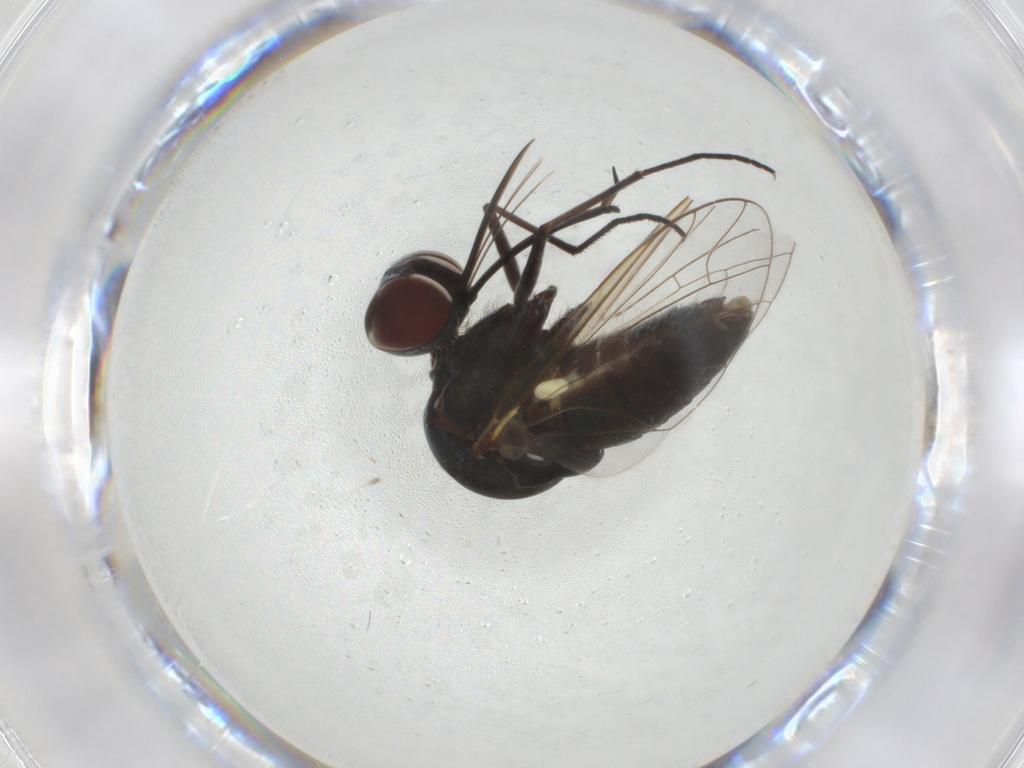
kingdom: Animalia
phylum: Arthropoda
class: Insecta
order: Diptera
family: Bombyliidae
